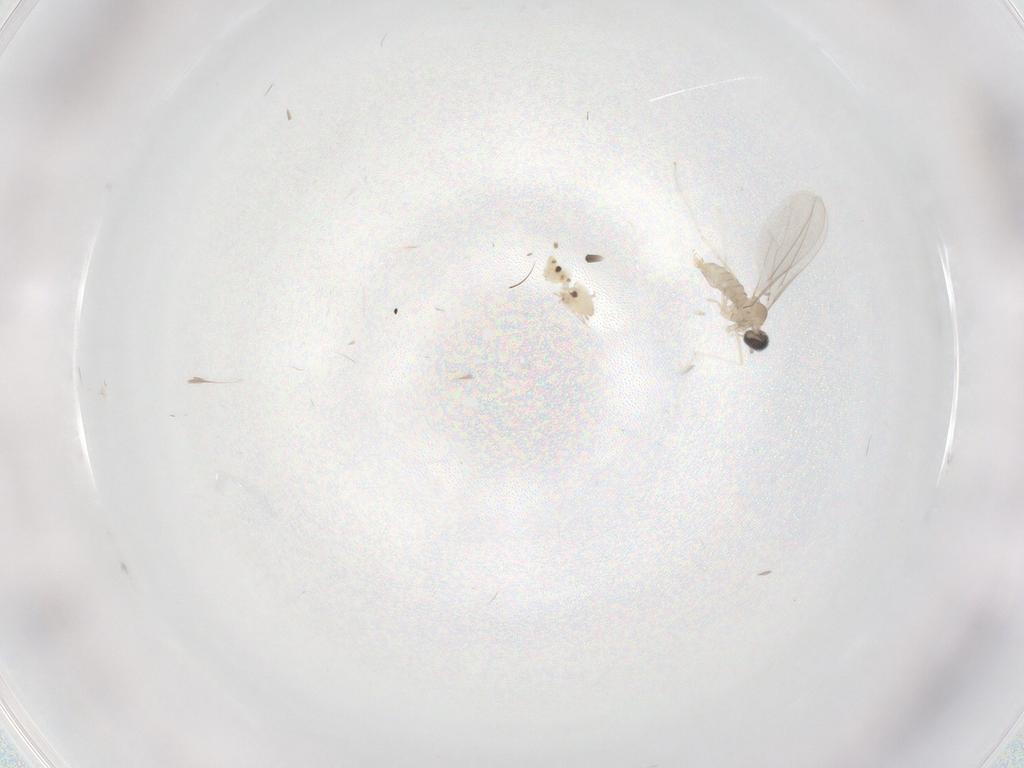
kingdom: Animalia
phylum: Arthropoda
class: Insecta
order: Diptera
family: Chironomidae
